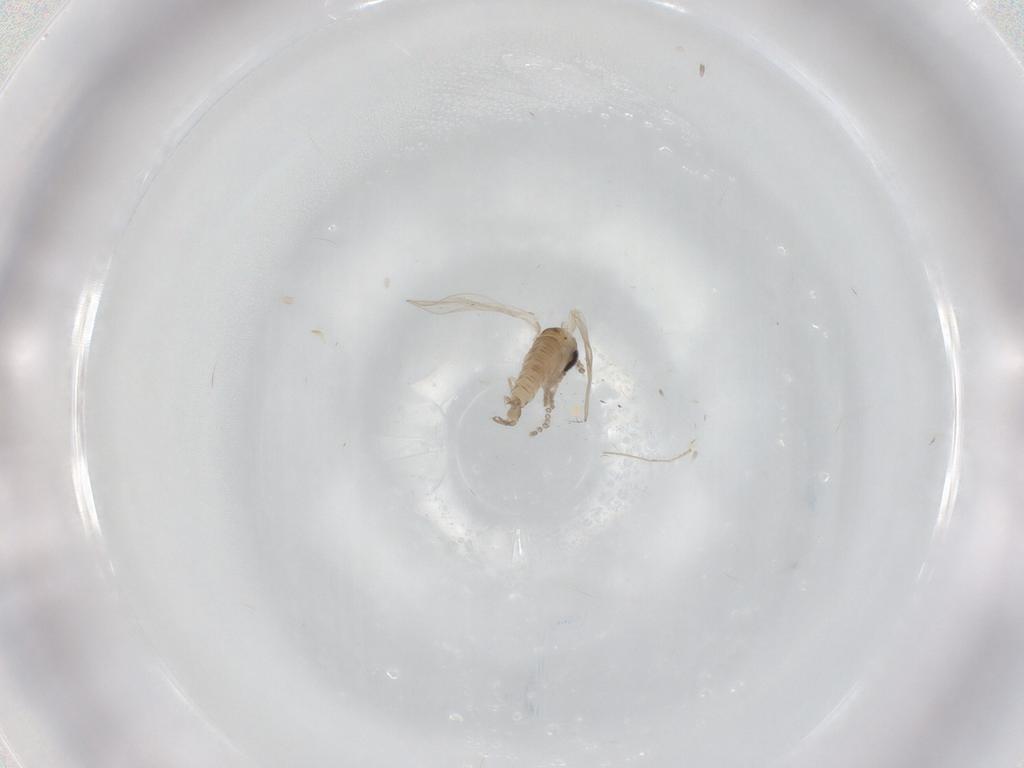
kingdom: Animalia
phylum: Arthropoda
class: Insecta
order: Diptera
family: Psychodidae
